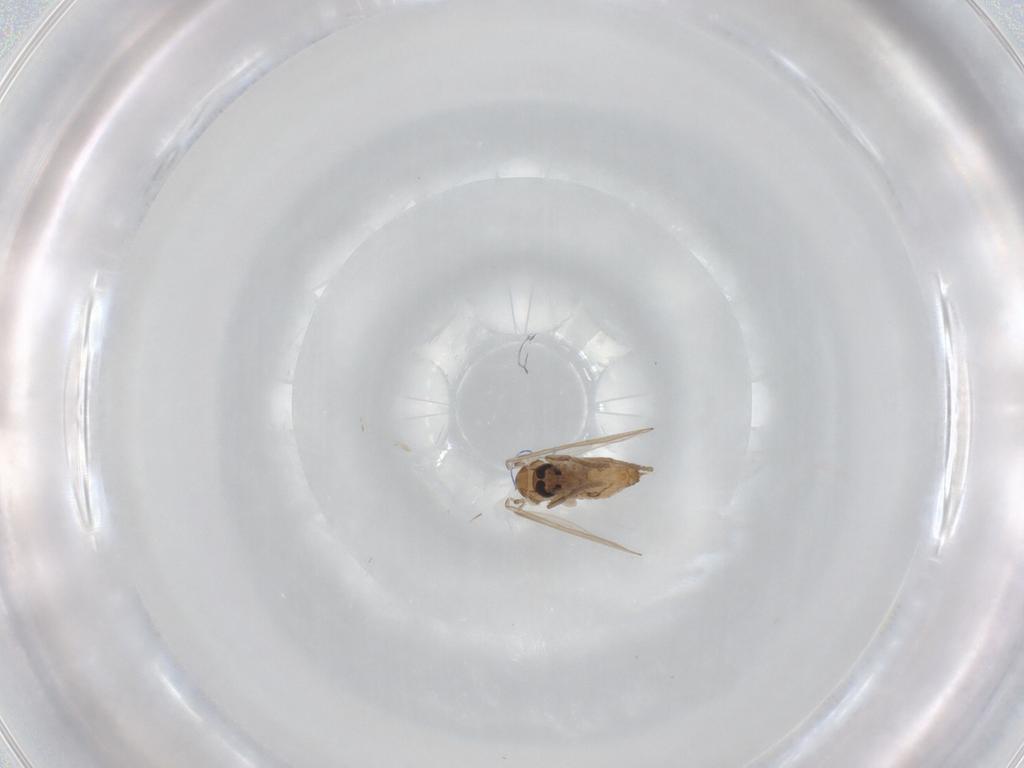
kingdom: Animalia
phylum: Arthropoda
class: Insecta
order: Diptera
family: Psychodidae
